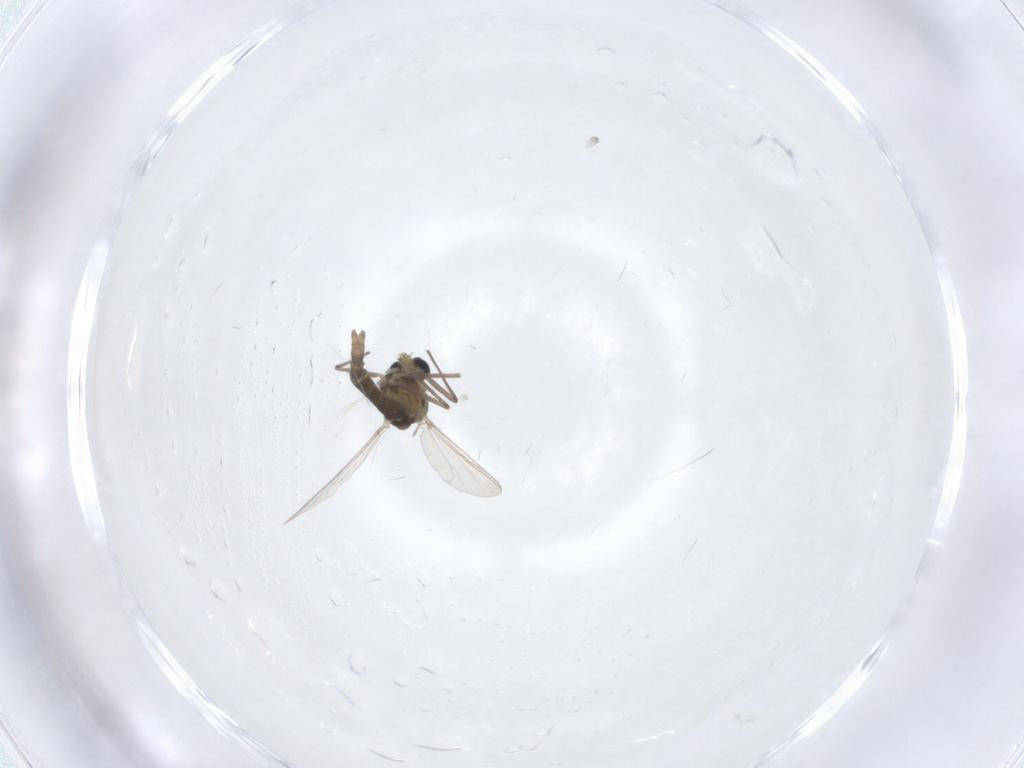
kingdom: Animalia
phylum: Arthropoda
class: Insecta
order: Diptera
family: Chironomidae
